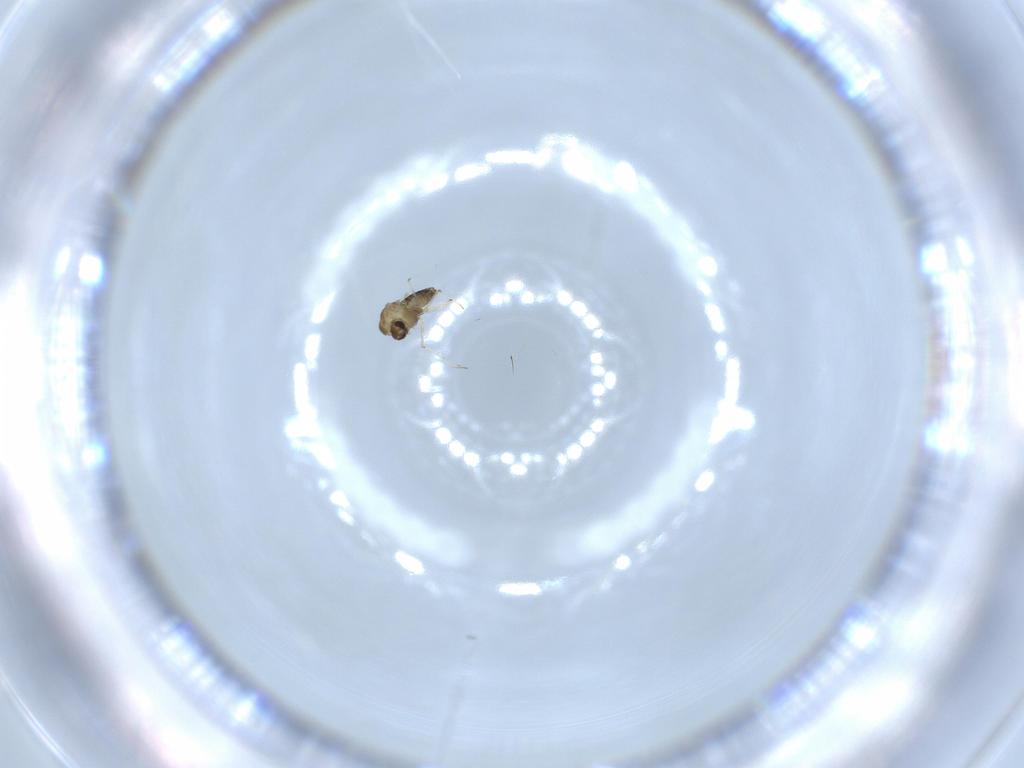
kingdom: Animalia
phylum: Arthropoda
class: Insecta
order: Diptera
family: Chironomidae
